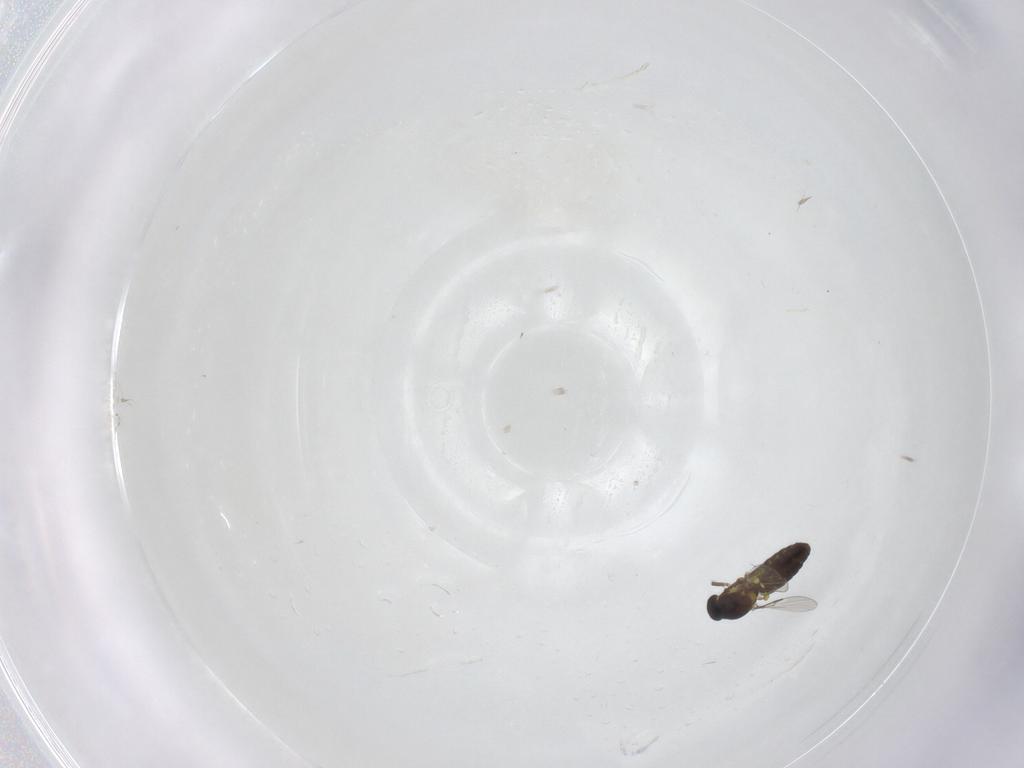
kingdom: Animalia
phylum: Arthropoda
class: Insecta
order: Diptera
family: Ceratopogonidae
